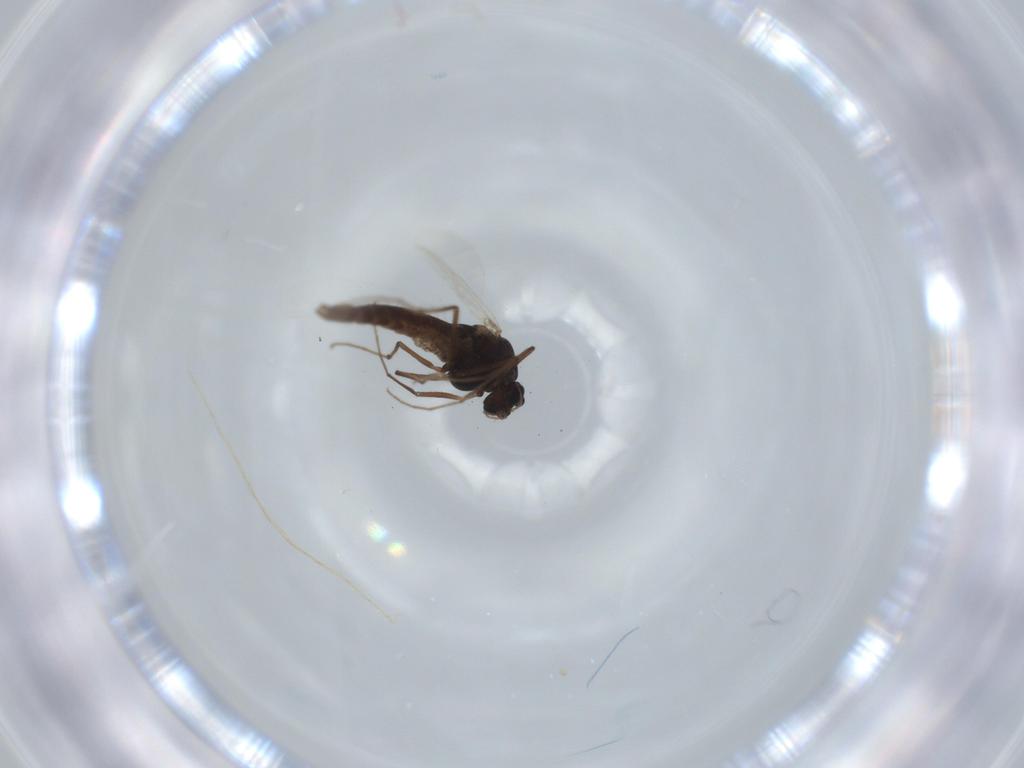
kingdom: Animalia
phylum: Arthropoda
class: Insecta
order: Diptera
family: Chironomidae
